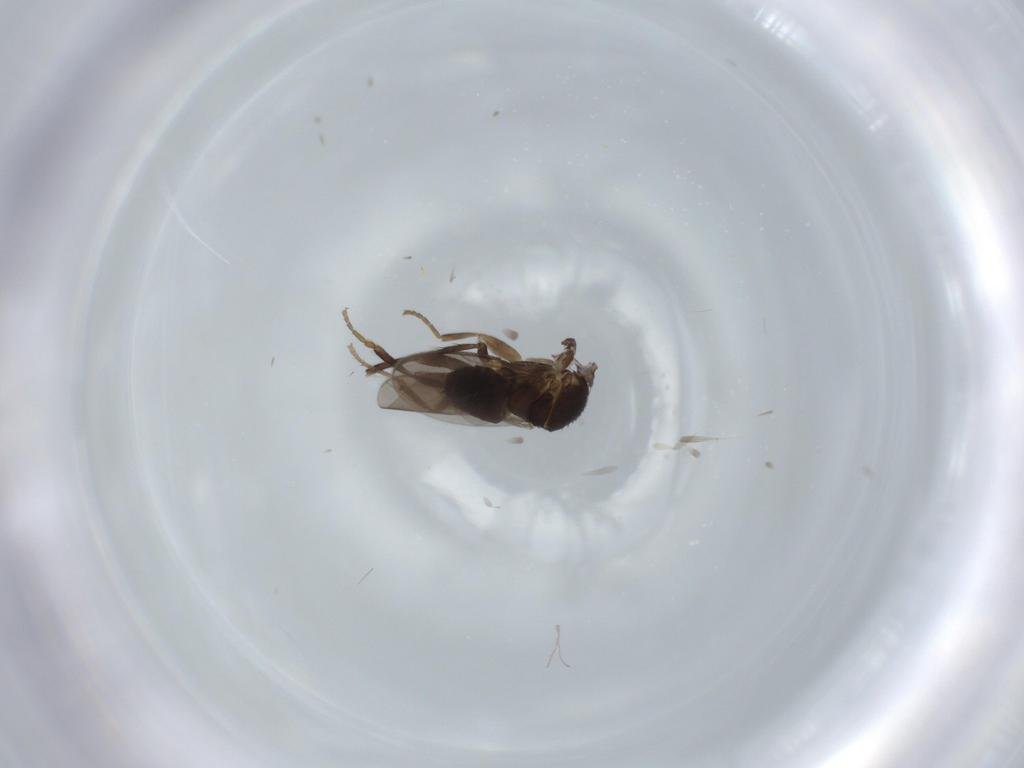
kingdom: Animalia
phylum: Arthropoda
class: Insecta
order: Diptera
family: Sphaeroceridae
